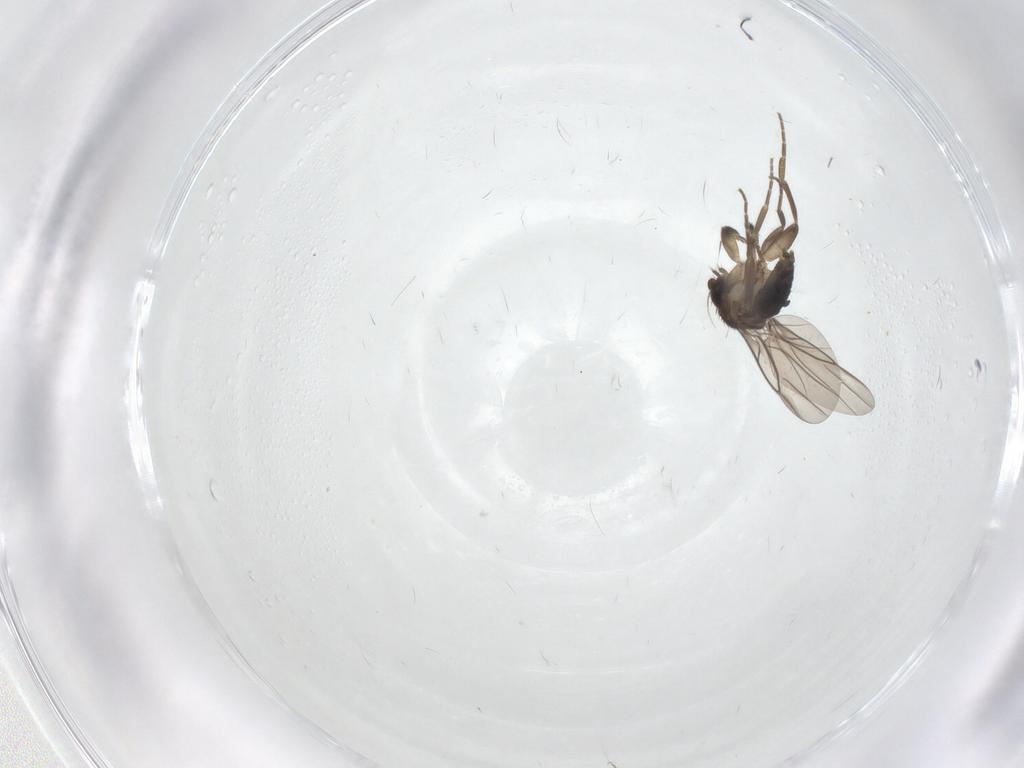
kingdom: Animalia
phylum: Arthropoda
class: Insecta
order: Diptera
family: Phoridae
